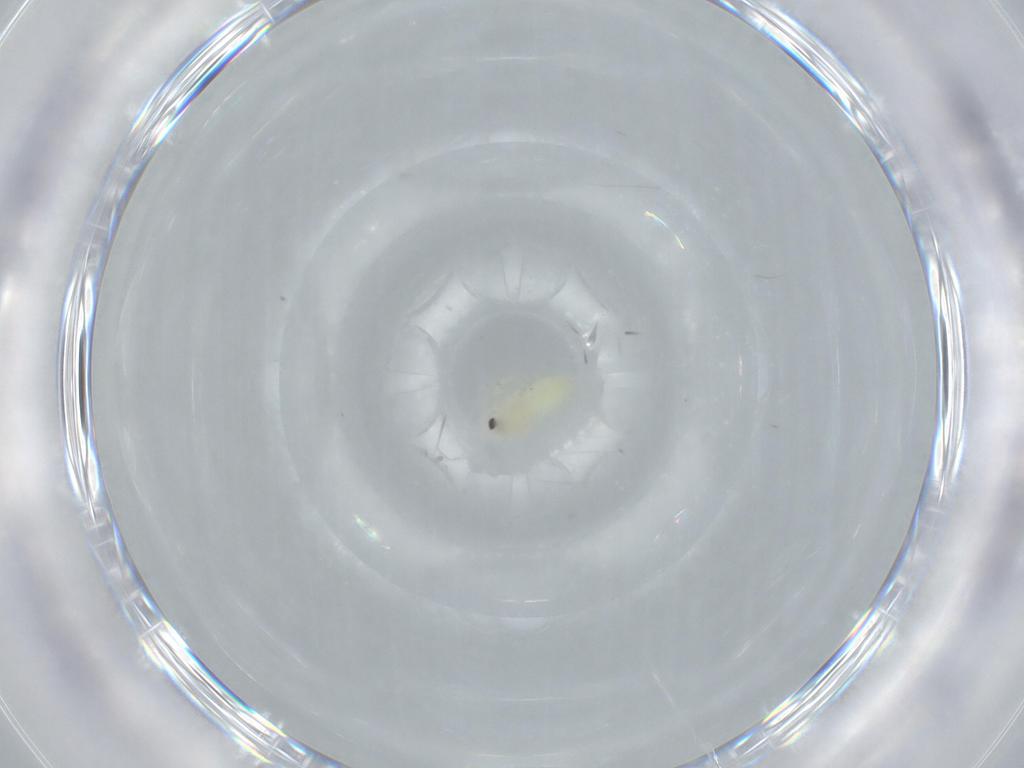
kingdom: Animalia
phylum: Arthropoda
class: Insecta
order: Hemiptera
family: Aleyrodidae
